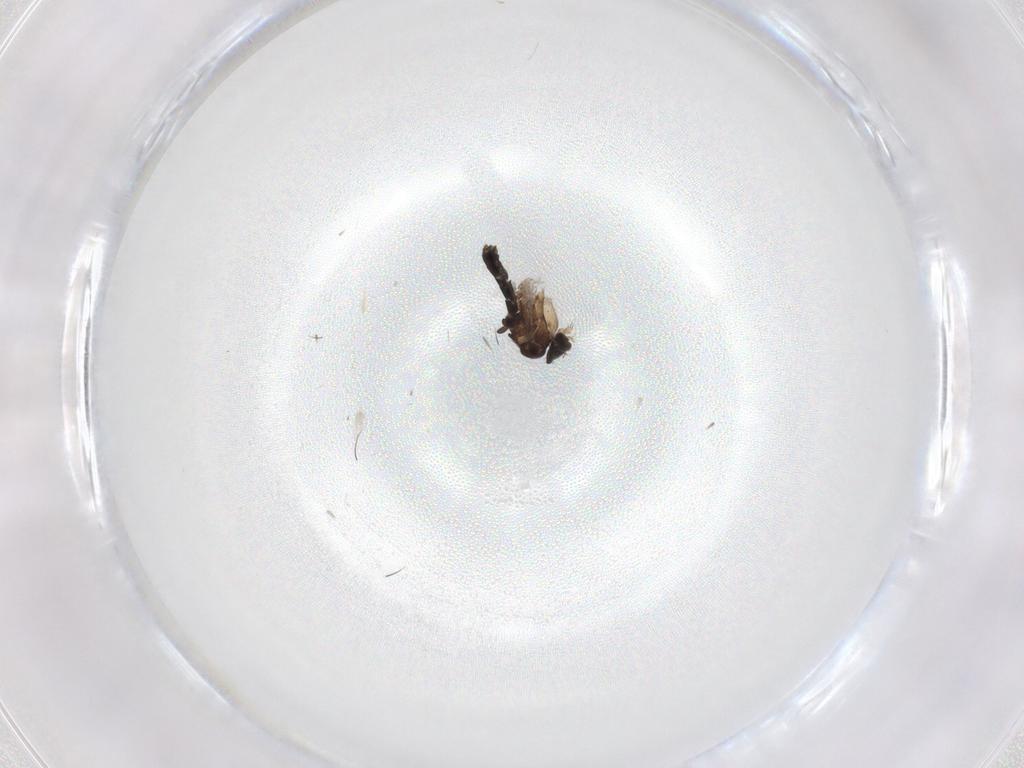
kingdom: Animalia
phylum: Arthropoda
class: Insecta
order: Diptera
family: Phoridae
